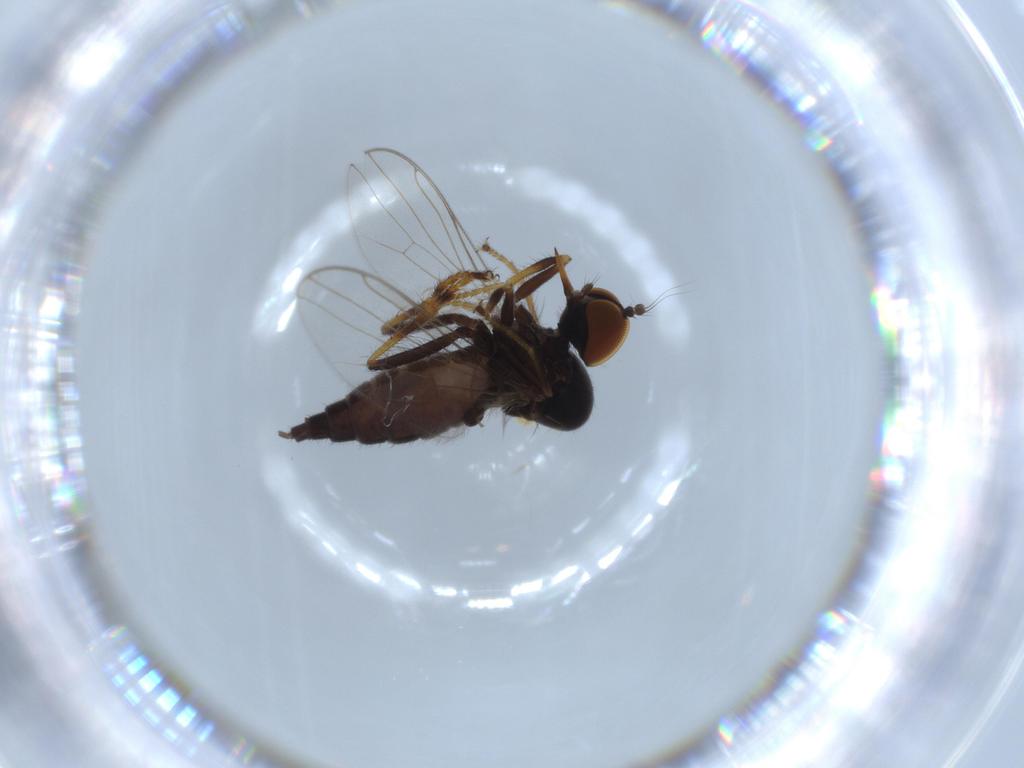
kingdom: Animalia
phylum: Arthropoda
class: Insecta
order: Diptera
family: Hybotidae
